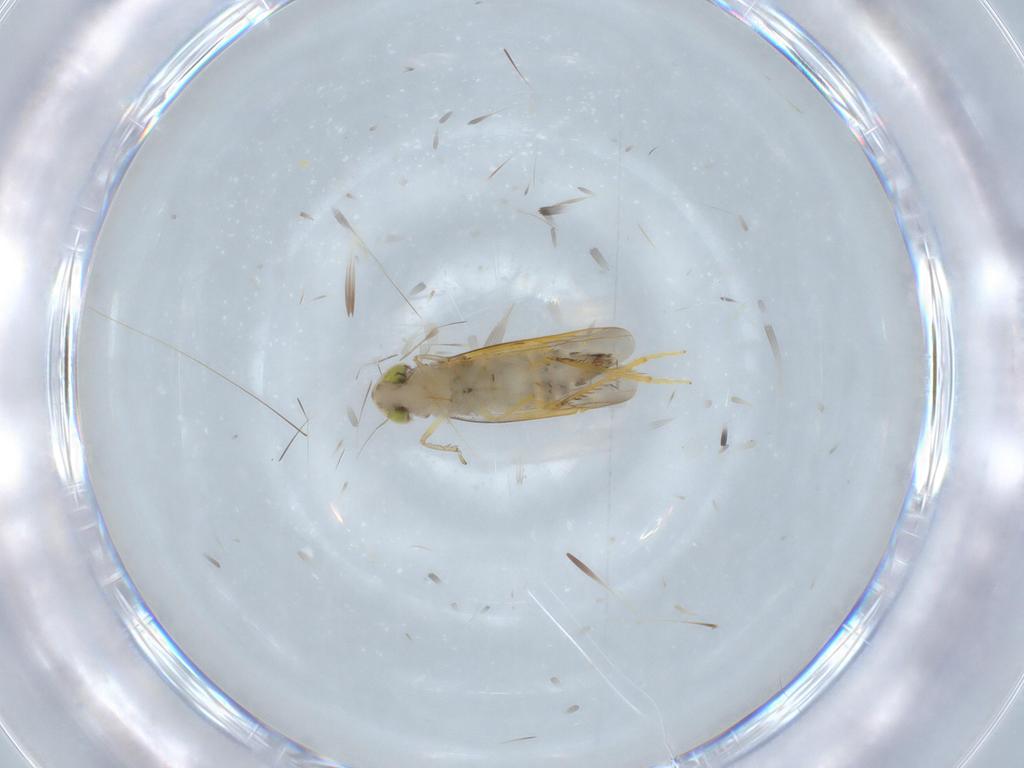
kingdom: Animalia
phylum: Arthropoda
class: Insecta
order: Hemiptera
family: Cicadellidae
